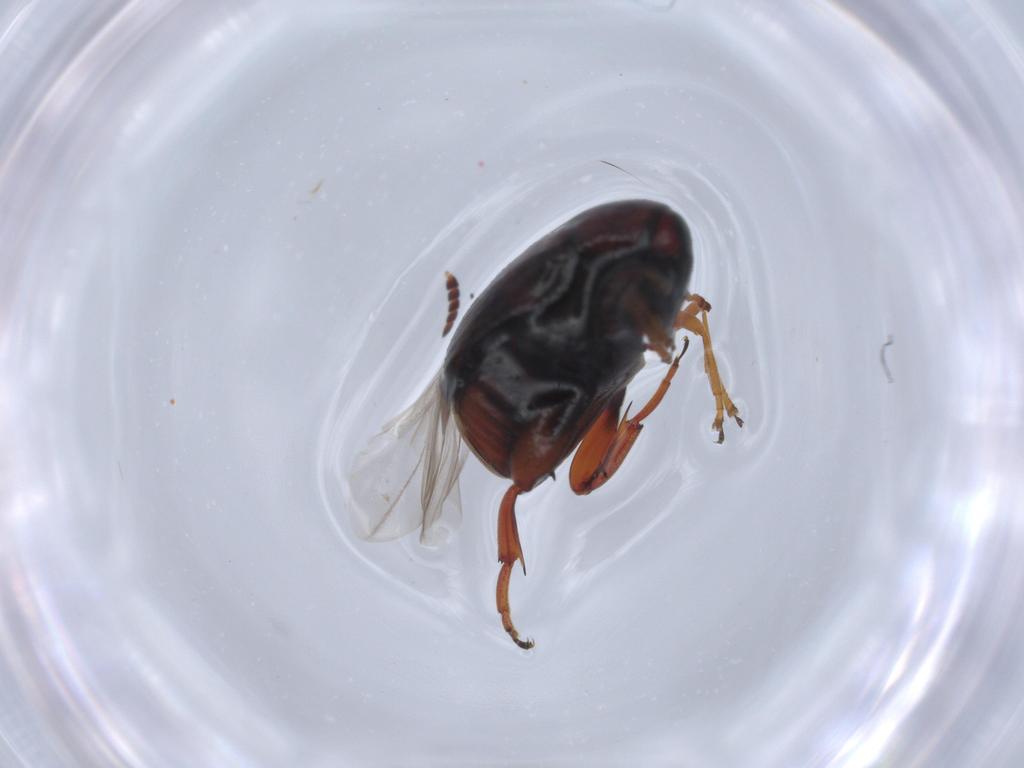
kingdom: Animalia
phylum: Arthropoda
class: Insecta
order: Coleoptera
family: Chrysomelidae
